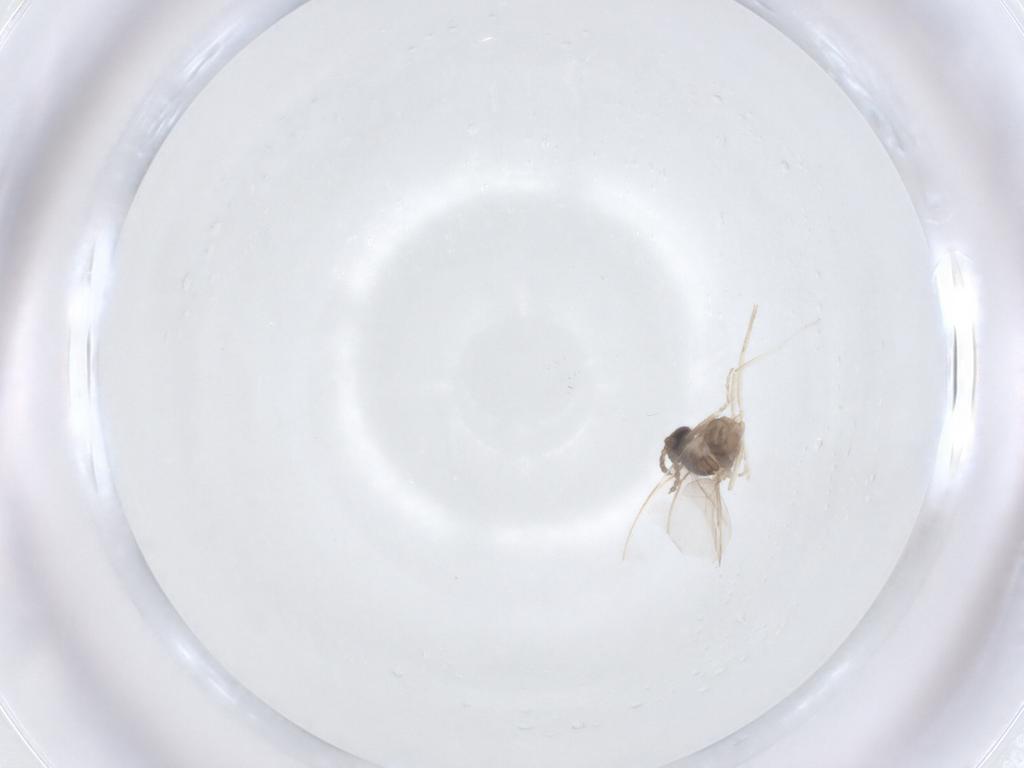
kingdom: Animalia
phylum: Arthropoda
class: Insecta
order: Diptera
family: Cecidomyiidae
